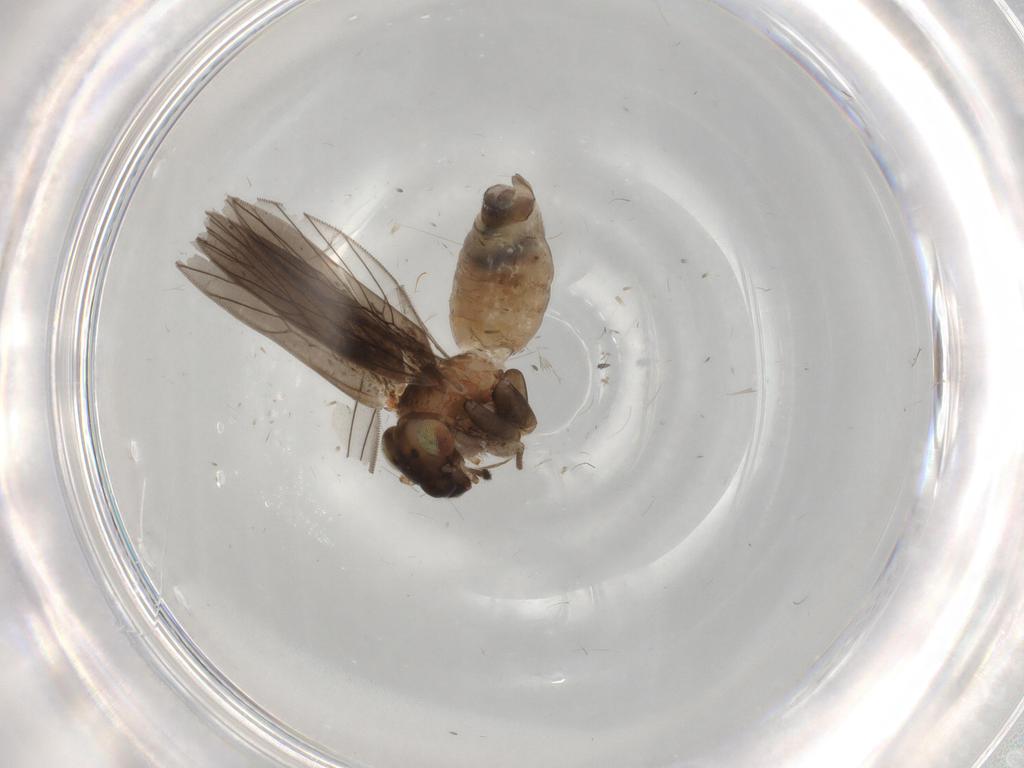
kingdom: Animalia
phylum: Arthropoda
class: Insecta
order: Psocodea
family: Lepidopsocidae
